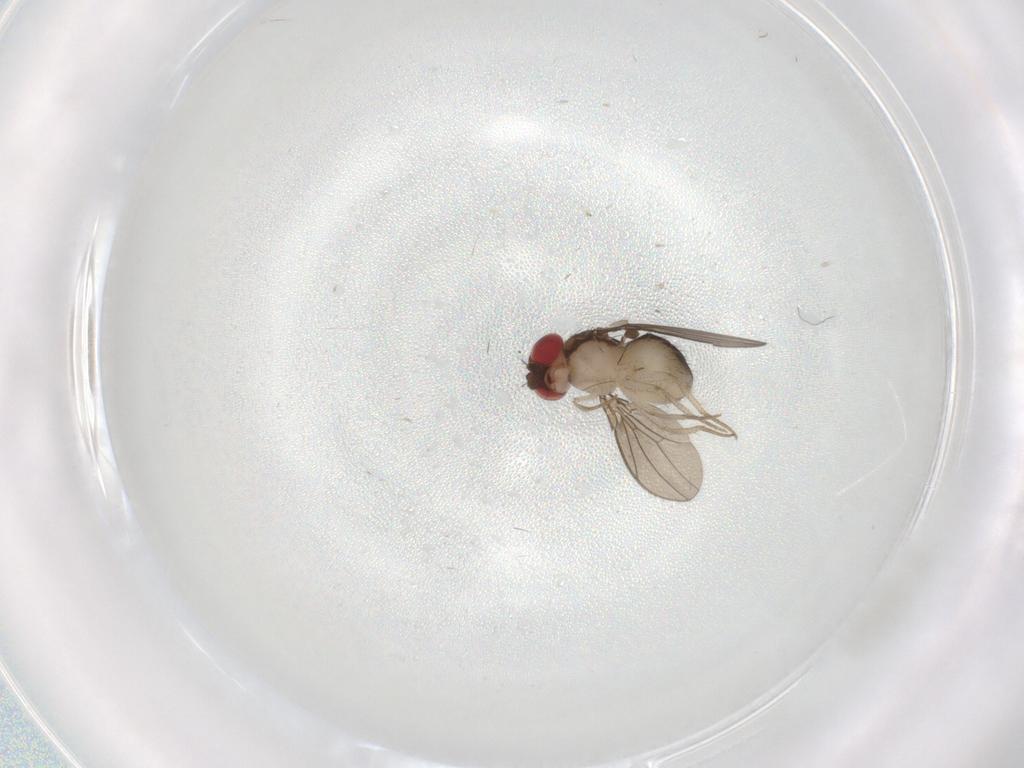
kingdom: Animalia
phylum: Arthropoda
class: Insecta
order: Diptera
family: Drosophilidae
